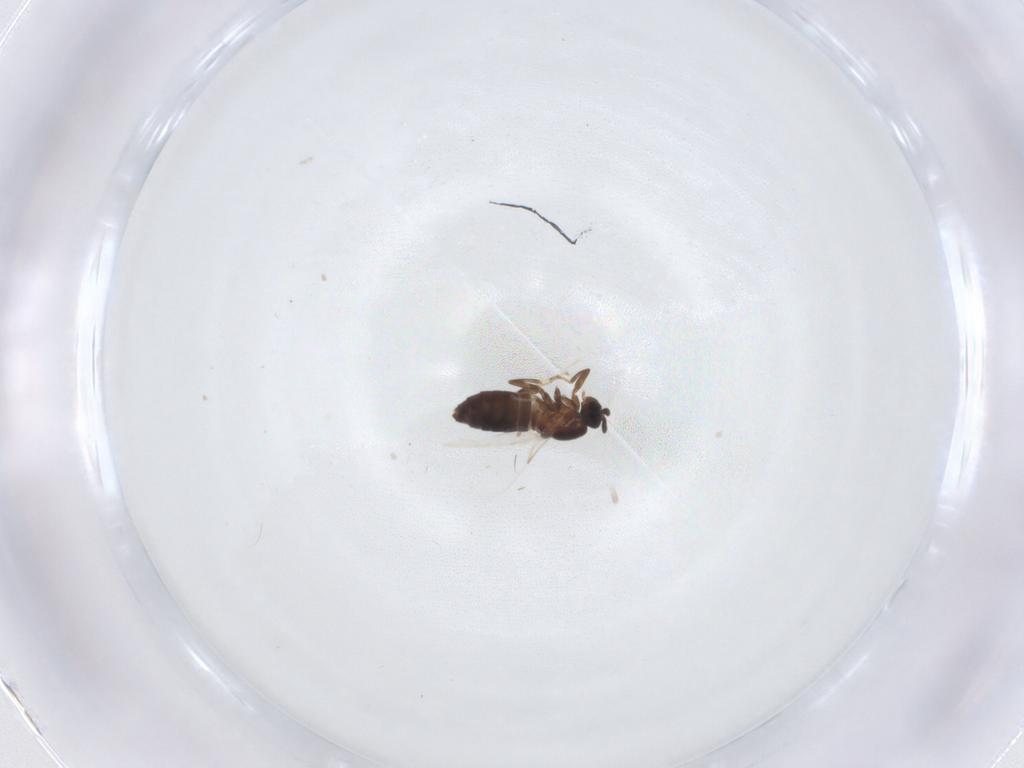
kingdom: Animalia
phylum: Arthropoda
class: Insecta
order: Diptera
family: Scatopsidae
